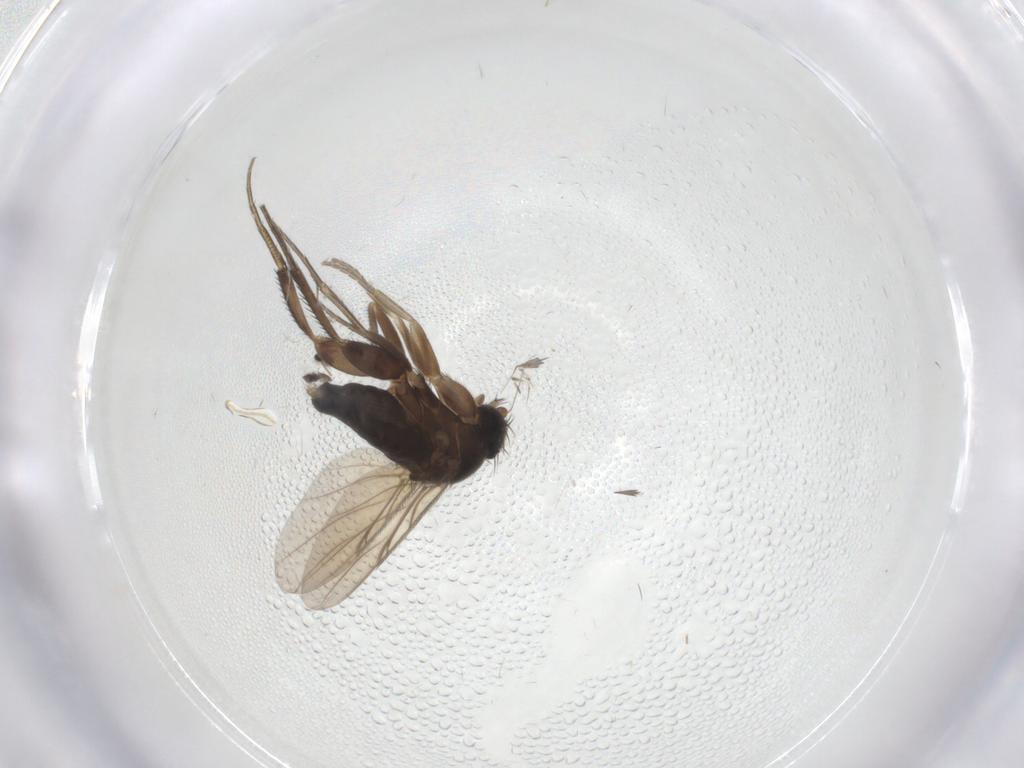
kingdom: Animalia
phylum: Arthropoda
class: Insecta
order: Diptera
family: Phoridae
